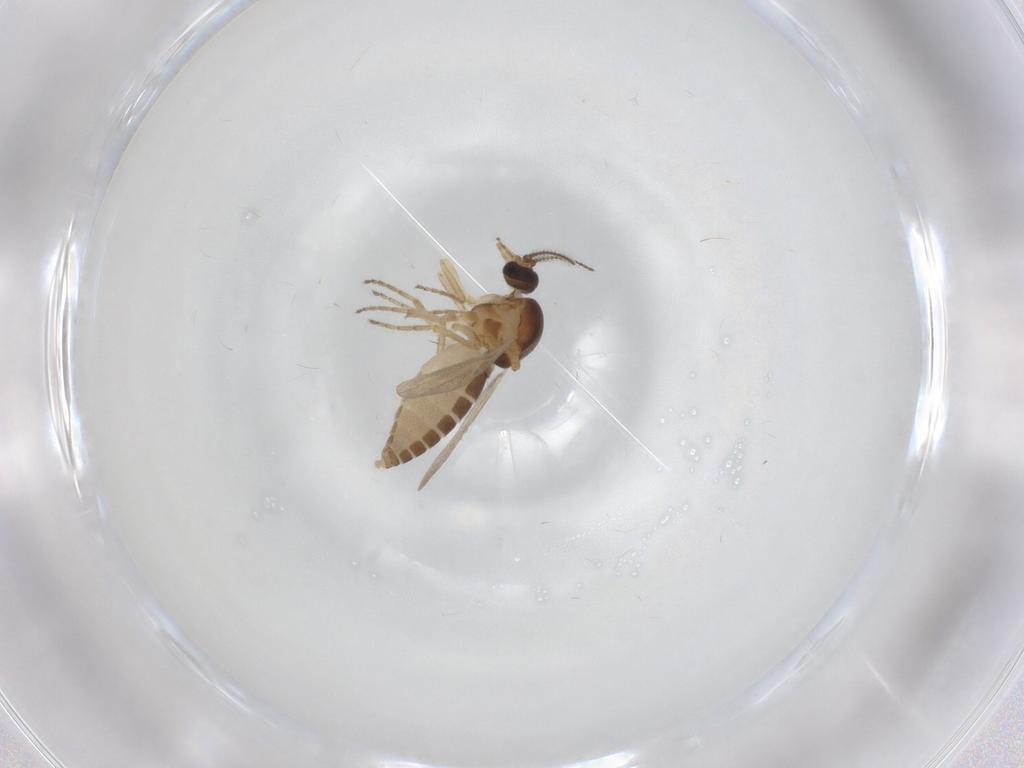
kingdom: Animalia
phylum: Arthropoda
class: Insecta
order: Diptera
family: Ceratopogonidae
